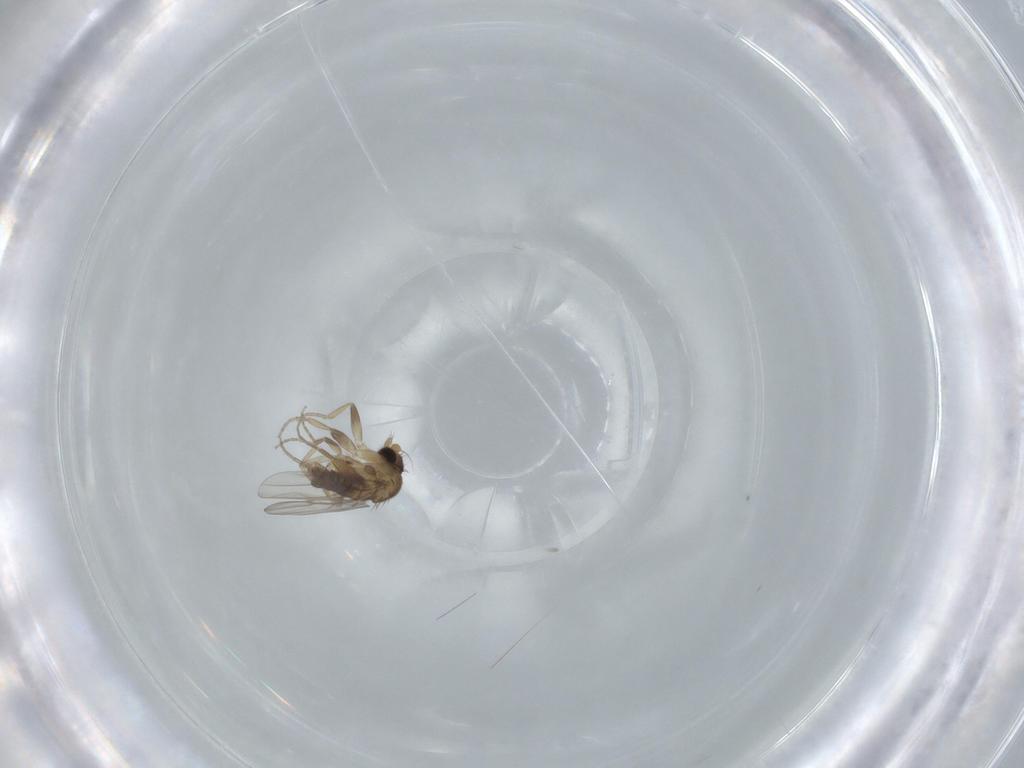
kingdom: Animalia
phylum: Arthropoda
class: Insecta
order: Diptera
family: Phoridae
